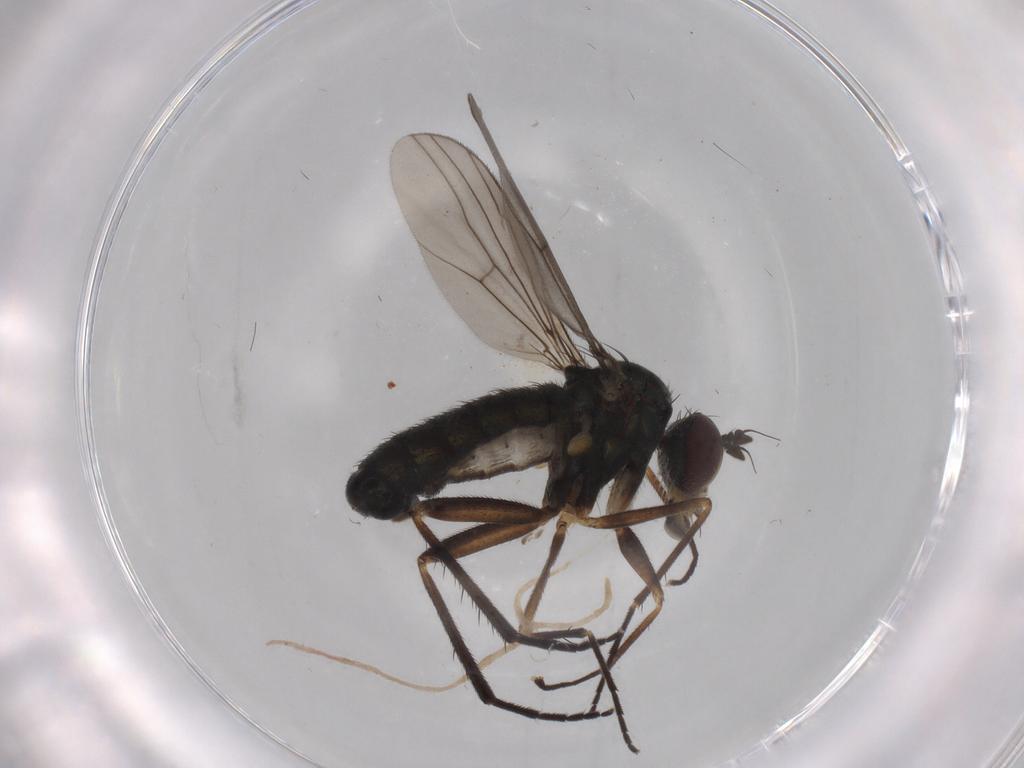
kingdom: Animalia
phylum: Arthropoda
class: Insecta
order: Diptera
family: Dolichopodidae
